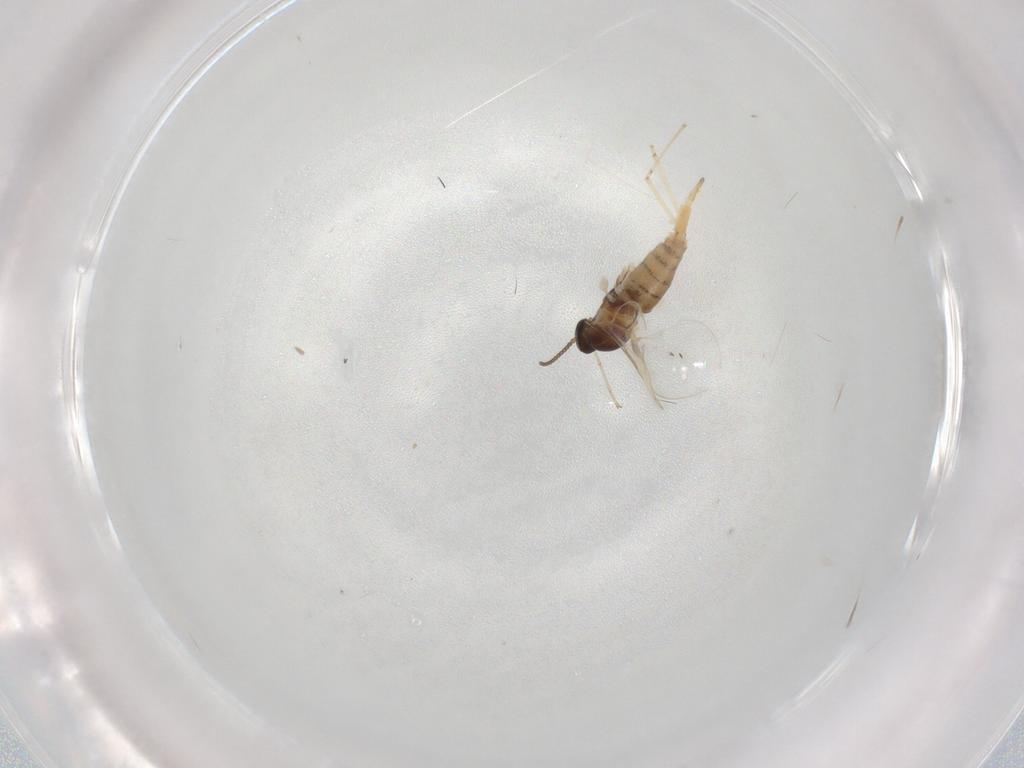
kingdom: Animalia
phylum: Arthropoda
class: Insecta
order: Diptera
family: Cecidomyiidae
